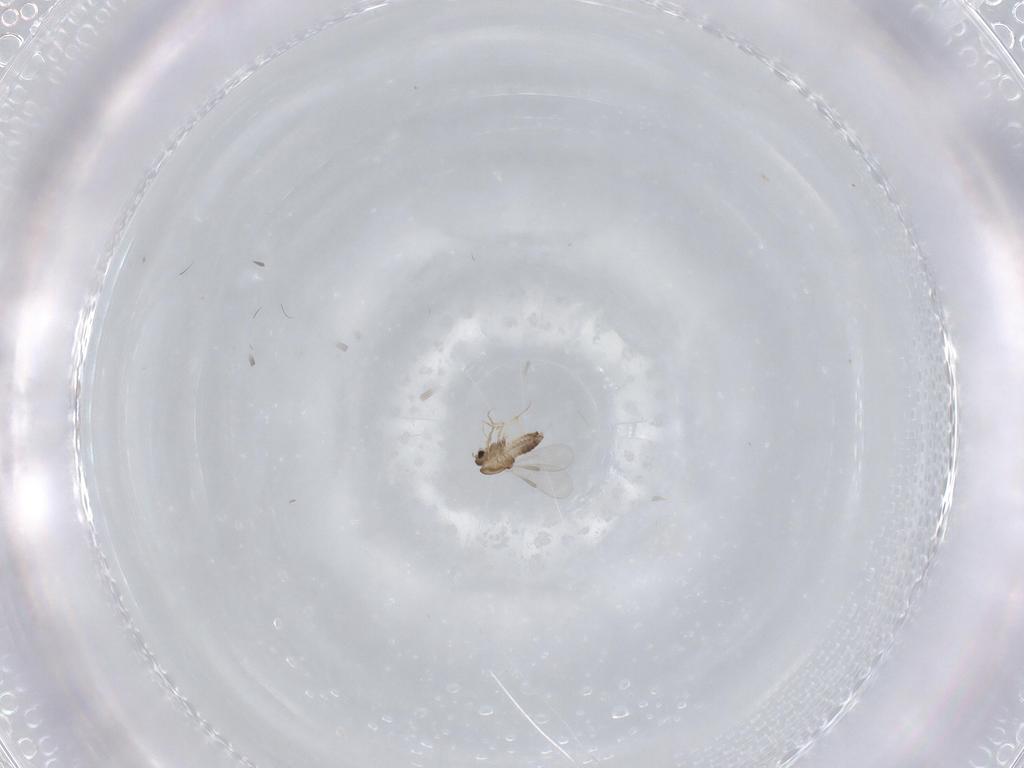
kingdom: Animalia
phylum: Arthropoda
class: Insecta
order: Diptera
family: Chironomidae
